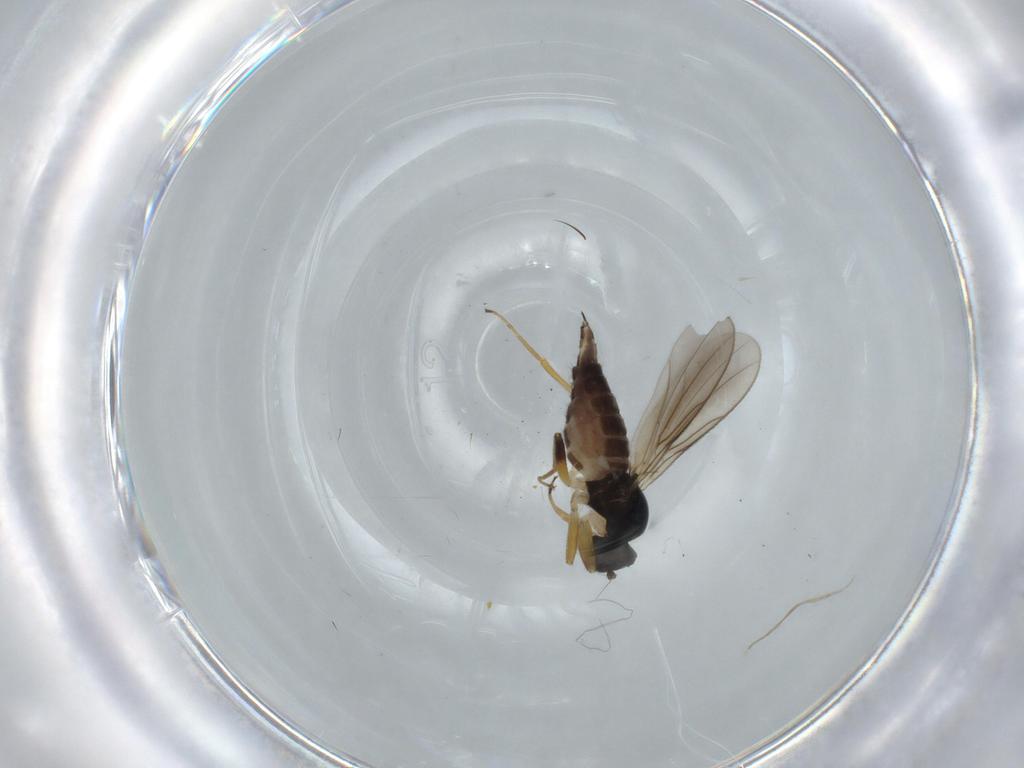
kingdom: Animalia
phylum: Arthropoda
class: Insecta
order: Diptera
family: Hybotidae
